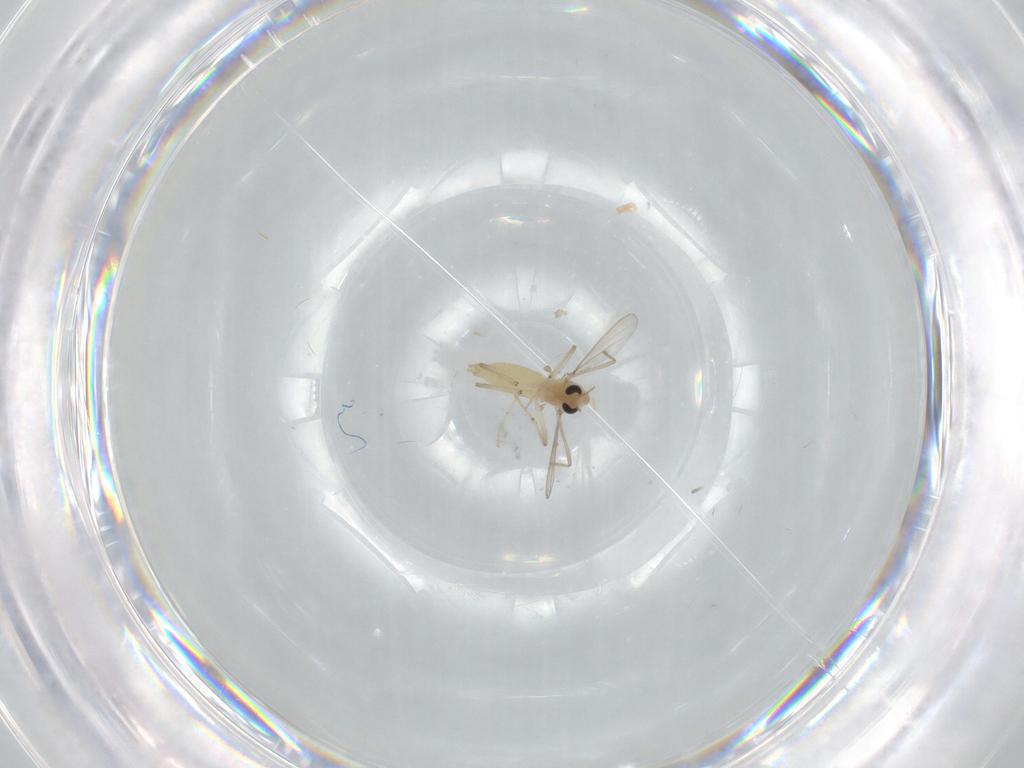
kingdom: Animalia
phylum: Arthropoda
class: Insecta
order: Diptera
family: Chironomidae
